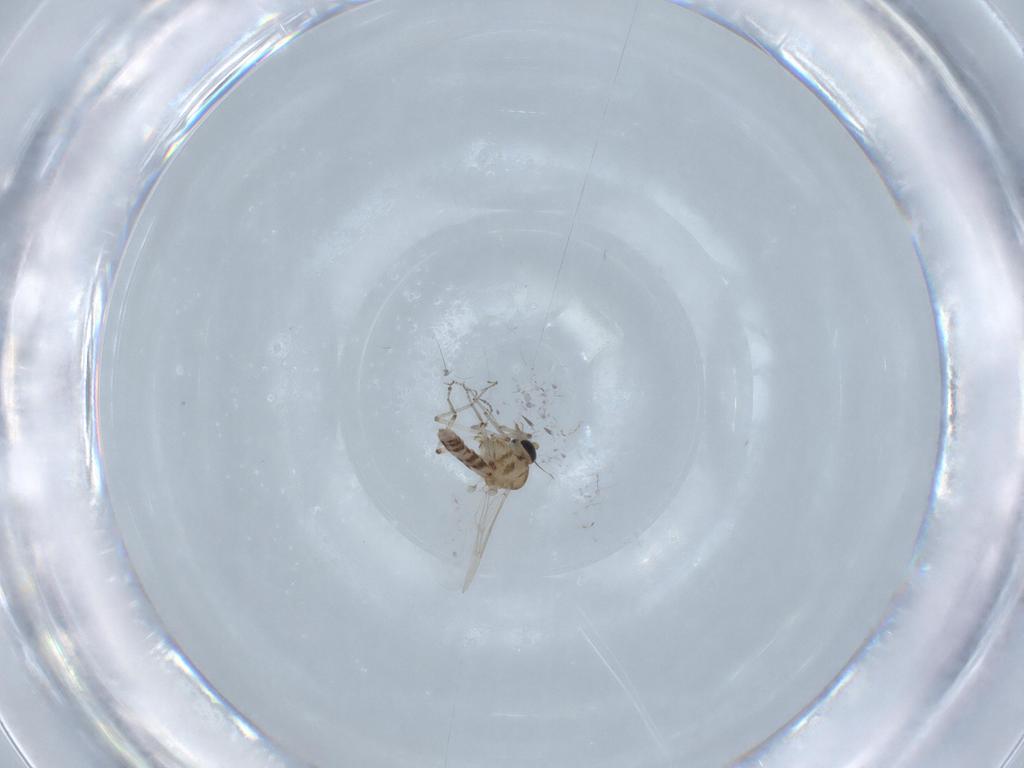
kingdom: Animalia
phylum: Arthropoda
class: Insecta
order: Diptera
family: Ceratopogonidae
